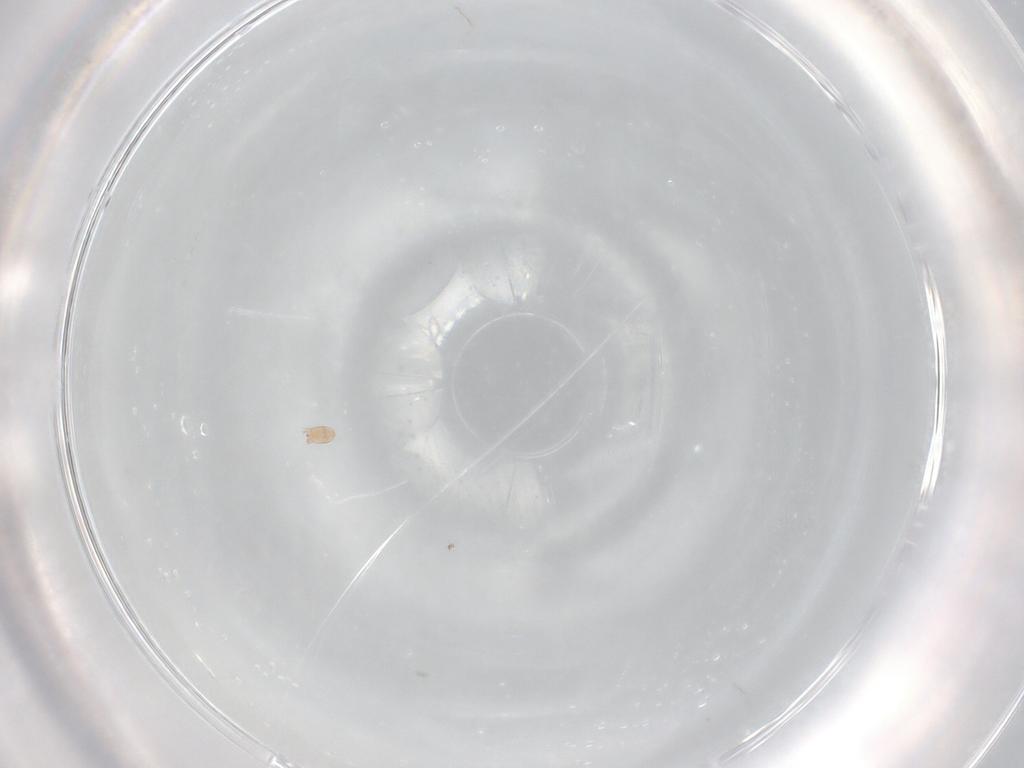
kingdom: Animalia
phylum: Arthropoda
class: Arachnida
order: Sarcoptiformes
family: Hemisarcoptidae
